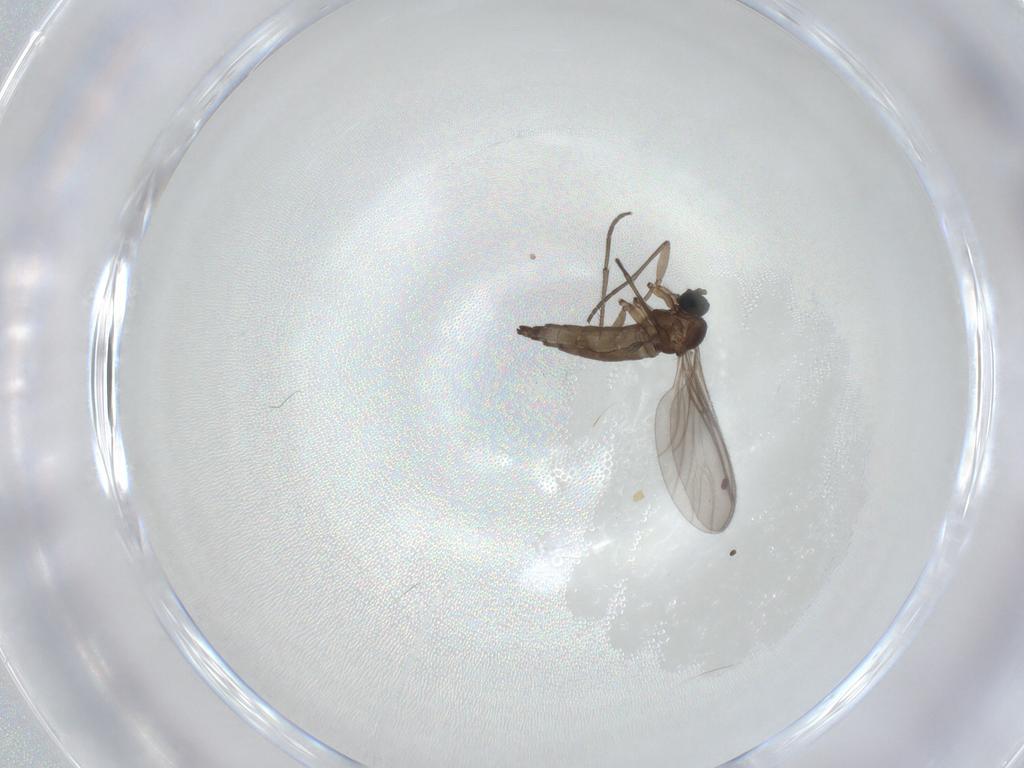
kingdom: Animalia
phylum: Arthropoda
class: Insecta
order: Diptera
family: Sciaridae
